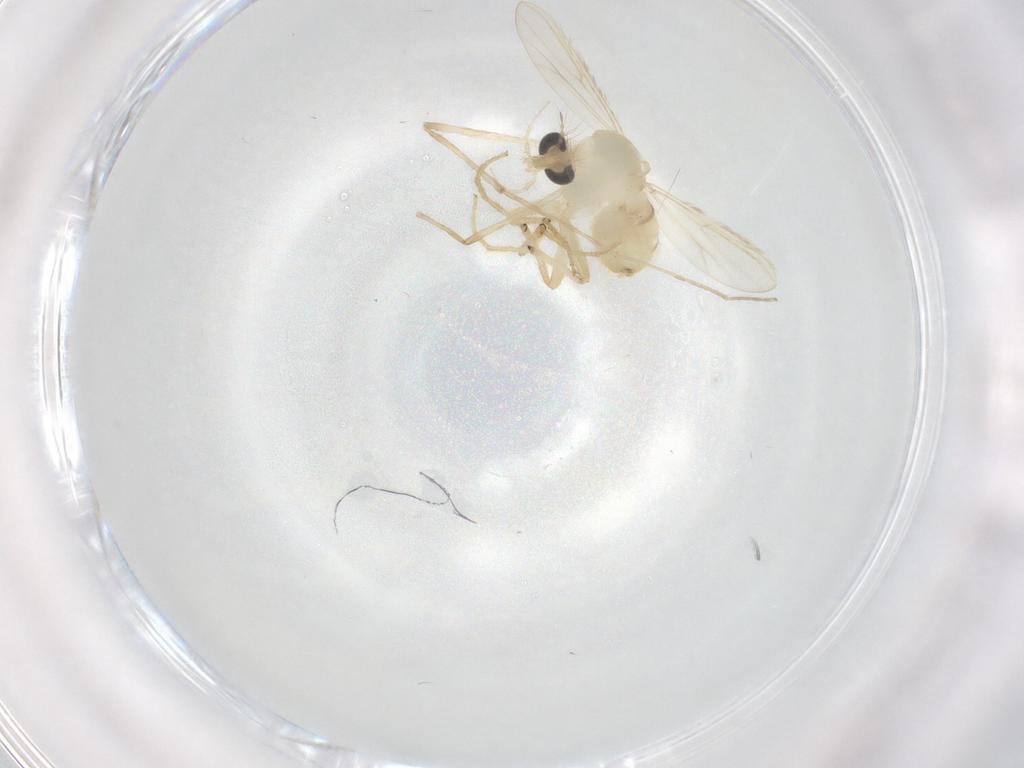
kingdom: Animalia
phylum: Arthropoda
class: Insecta
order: Diptera
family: Chironomidae
